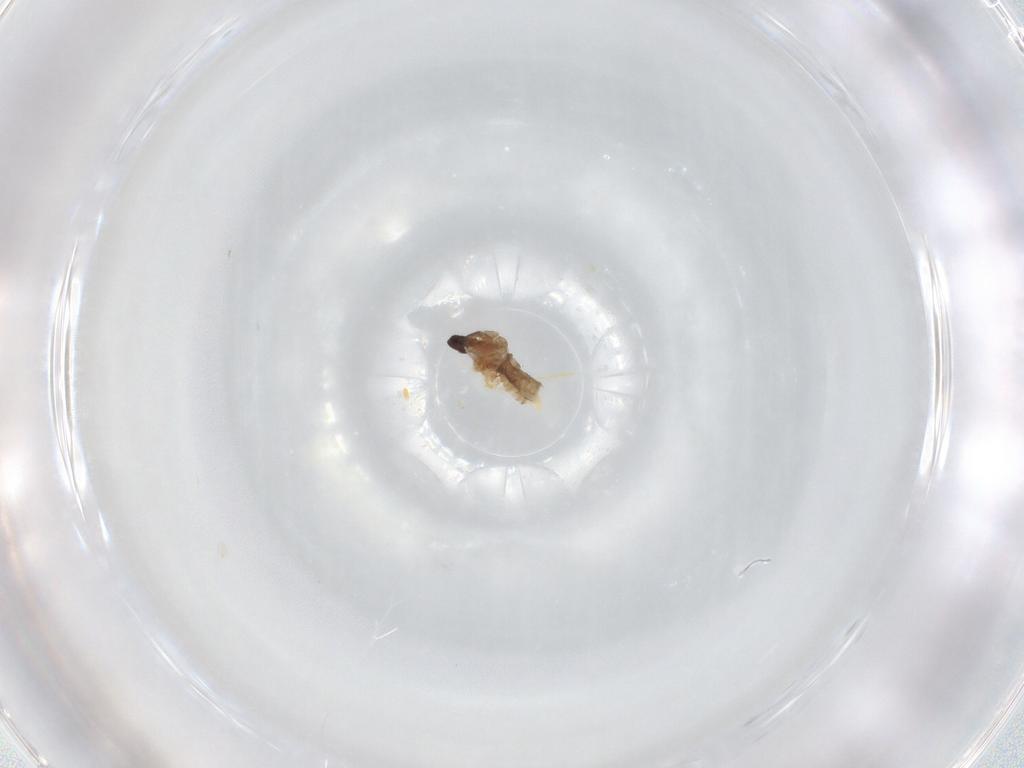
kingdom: Animalia
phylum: Arthropoda
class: Insecta
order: Diptera
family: Cecidomyiidae
